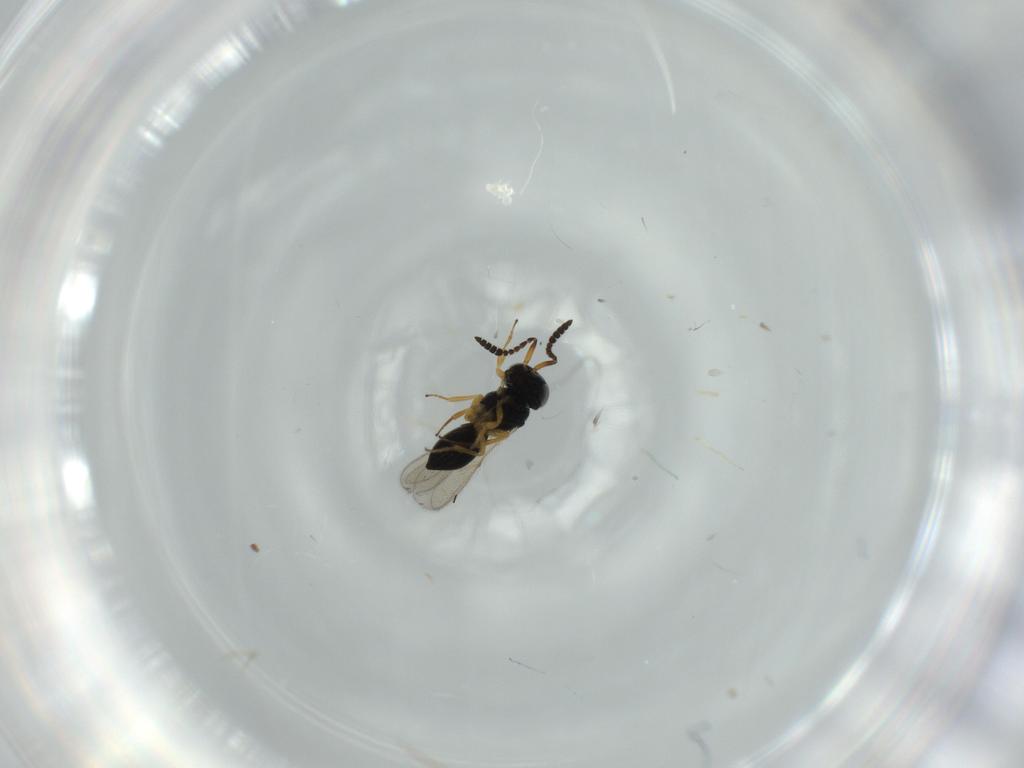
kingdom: Animalia
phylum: Arthropoda
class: Insecta
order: Hymenoptera
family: Scelionidae
